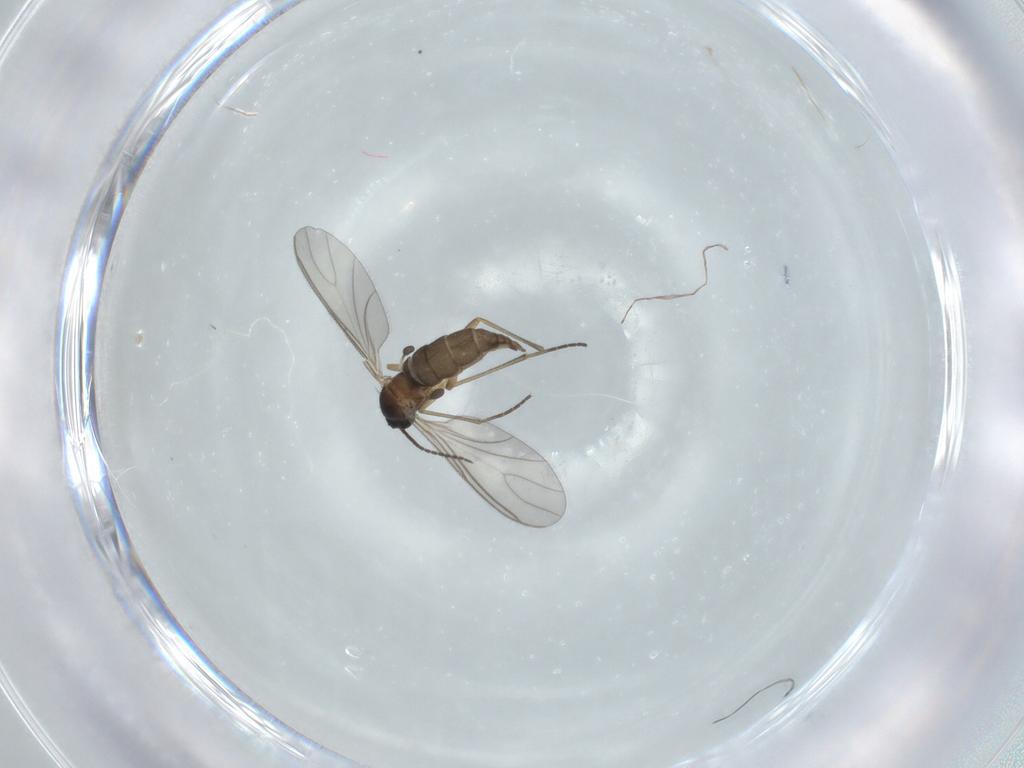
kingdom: Animalia
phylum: Arthropoda
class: Insecta
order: Diptera
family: Sciaridae
